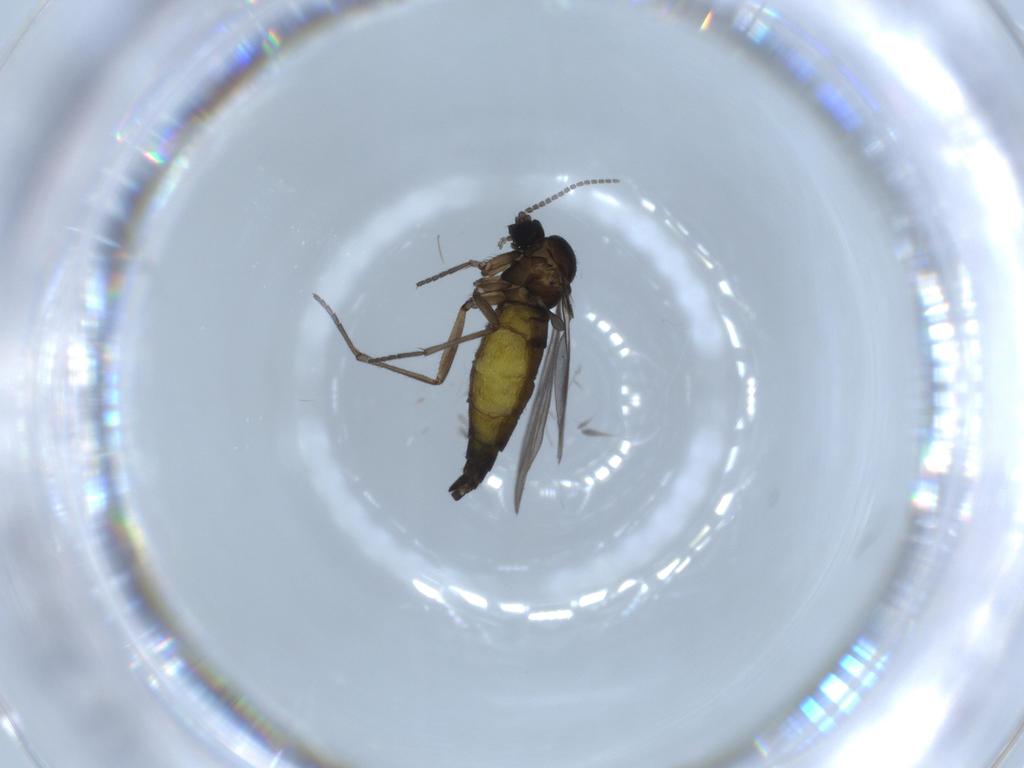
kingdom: Animalia
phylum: Arthropoda
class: Insecta
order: Diptera
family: Sciaridae
